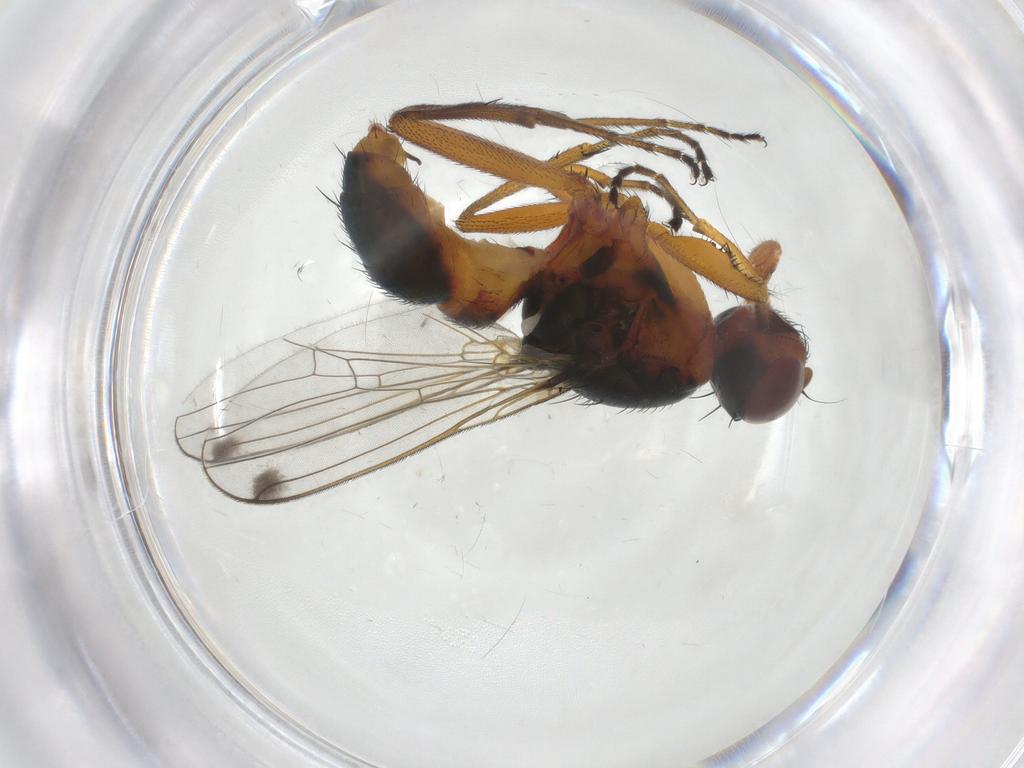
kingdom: Animalia
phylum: Arthropoda
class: Insecta
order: Diptera
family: Sepsidae
